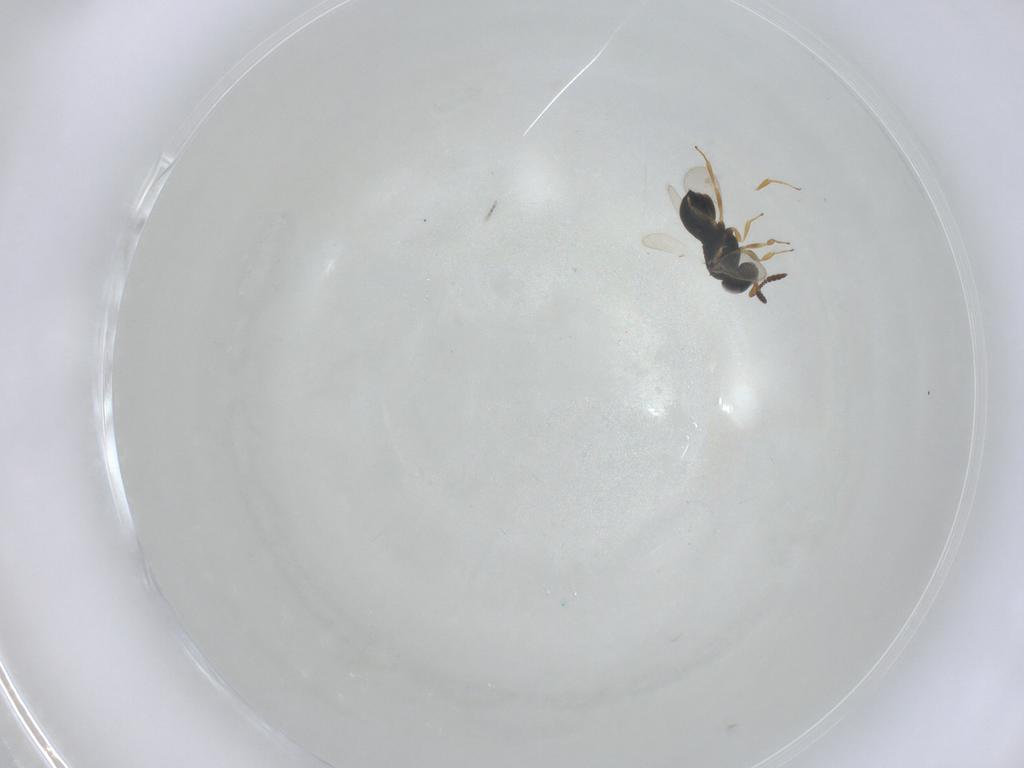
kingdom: Animalia
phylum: Arthropoda
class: Insecta
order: Hymenoptera
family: Scelionidae
